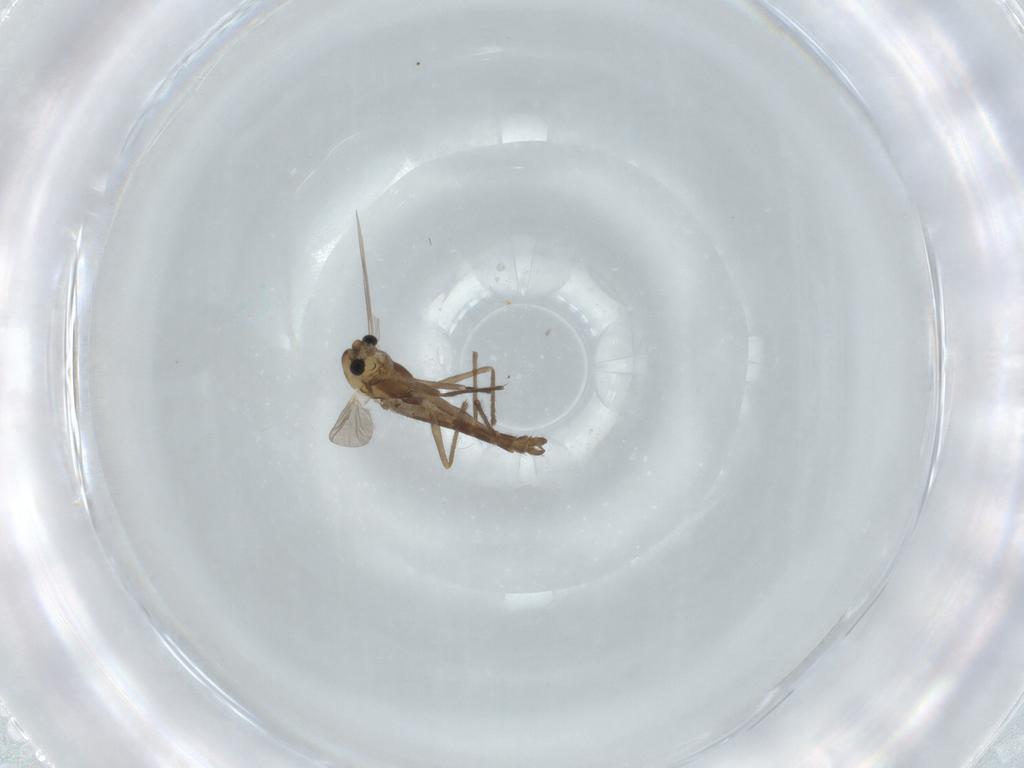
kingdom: Animalia
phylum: Arthropoda
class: Insecta
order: Diptera
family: Chironomidae
